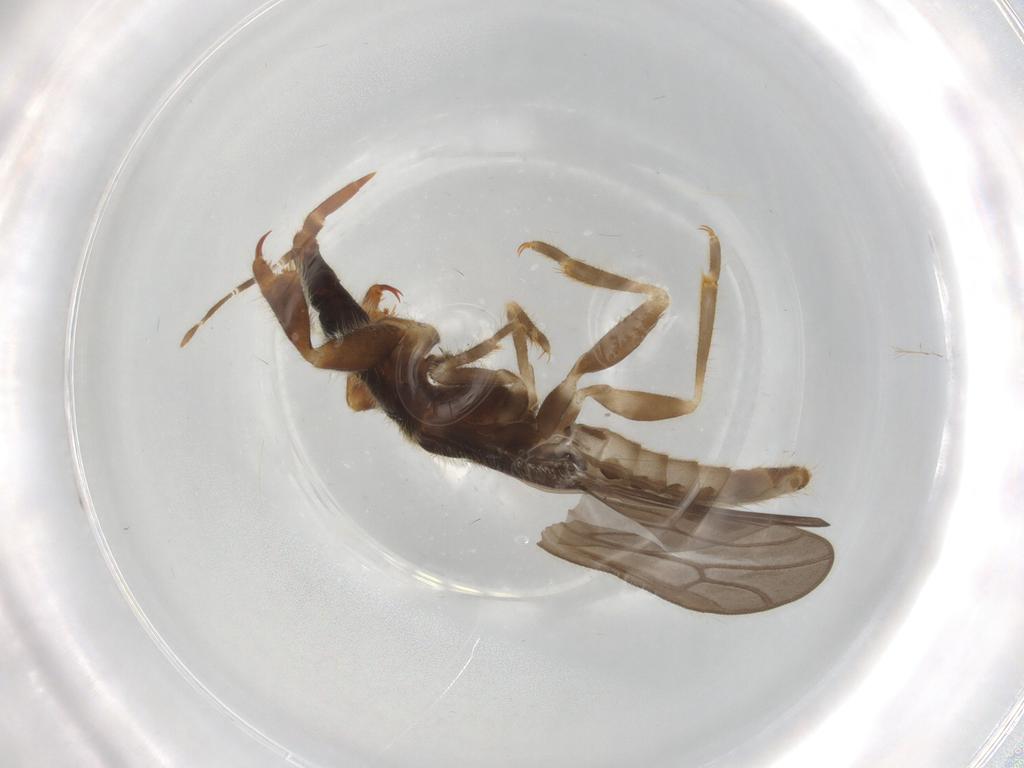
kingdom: Animalia
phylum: Arthropoda
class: Insecta
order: Hemiptera
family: Enicocephalidae
